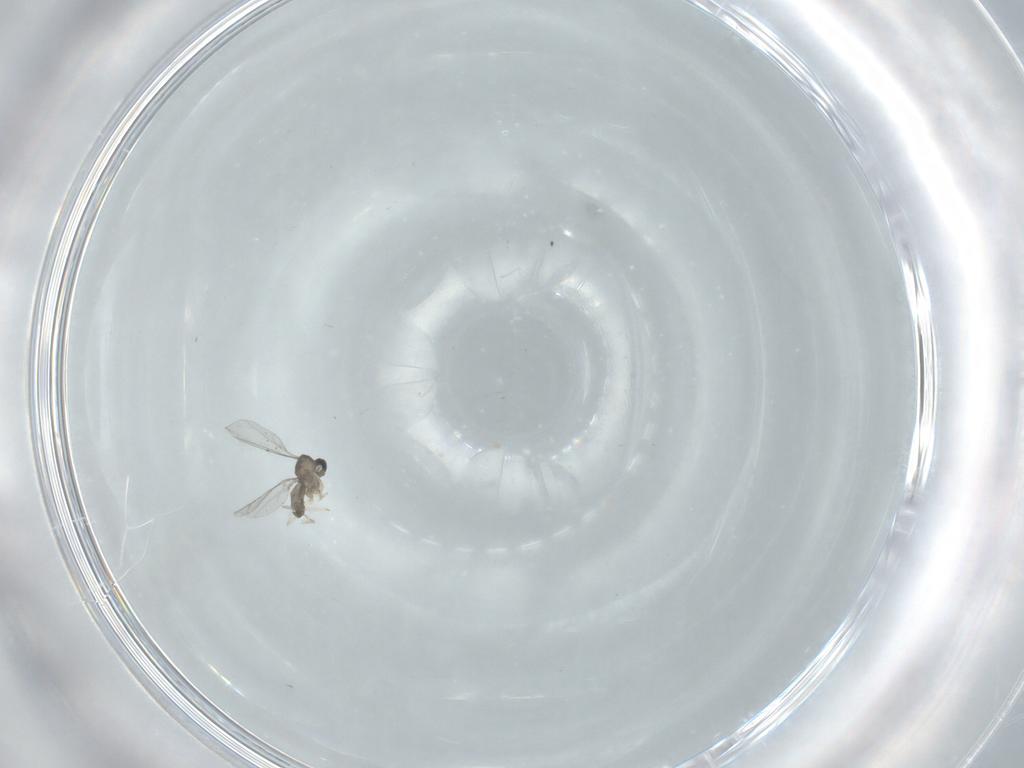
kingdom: Animalia
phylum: Arthropoda
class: Insecta
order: Diptera
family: Cecidomyiidae
